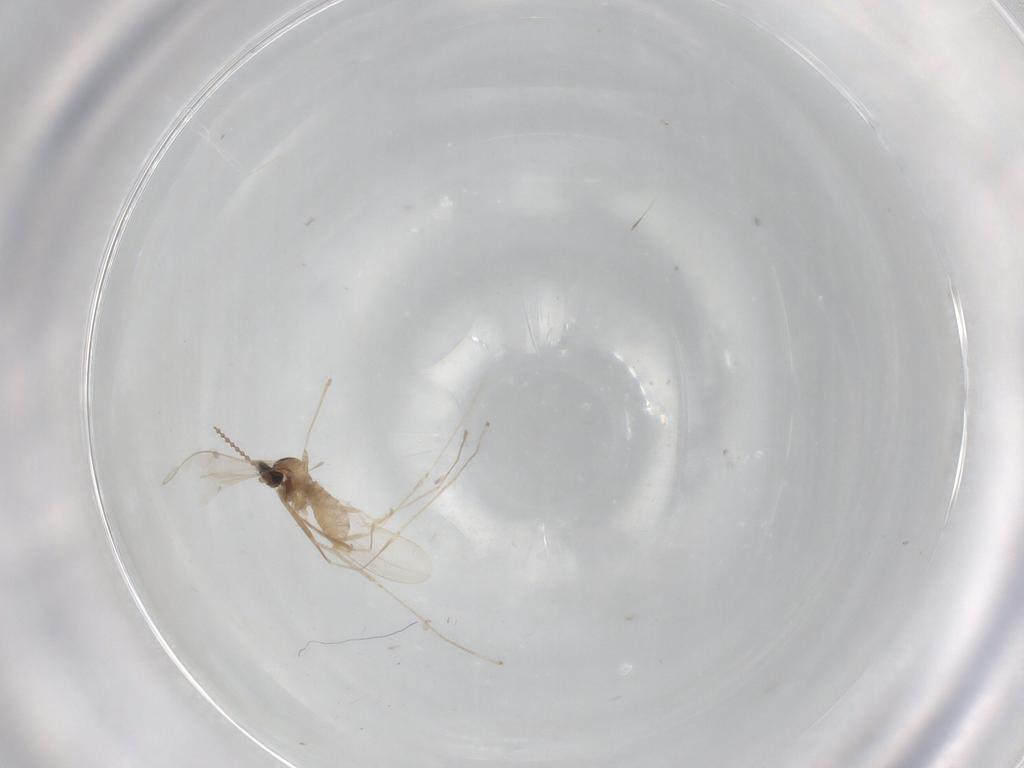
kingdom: Animalia
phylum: Arthropoda
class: Insecta
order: Diptera
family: Cecidomyiidae
